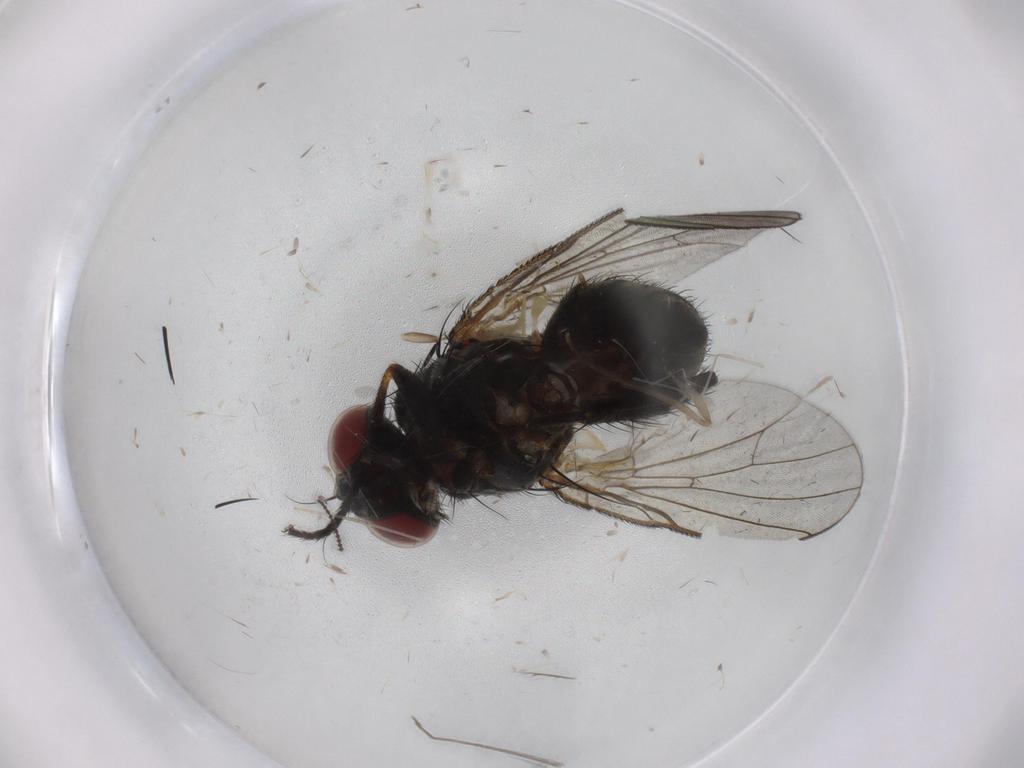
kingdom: Animalia
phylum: Arthropoda
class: Insecta
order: Diptera
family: Muscidae
